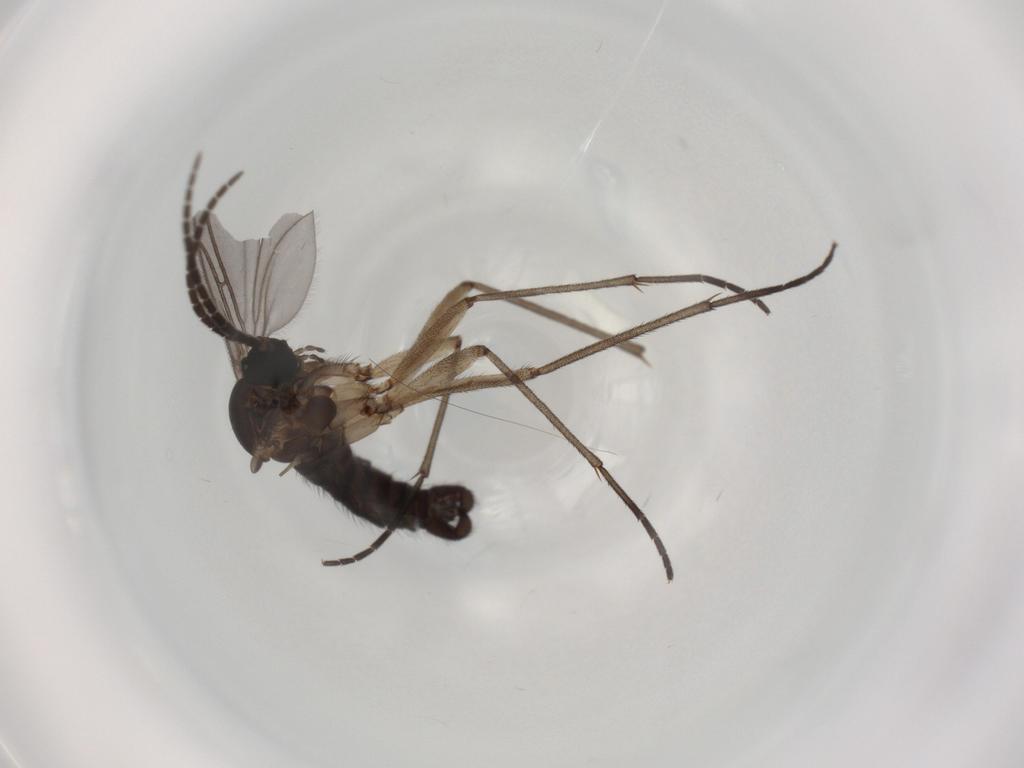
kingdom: Animalia
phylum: Arthropoda
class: Insecta
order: Diptera
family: Sciaridae
